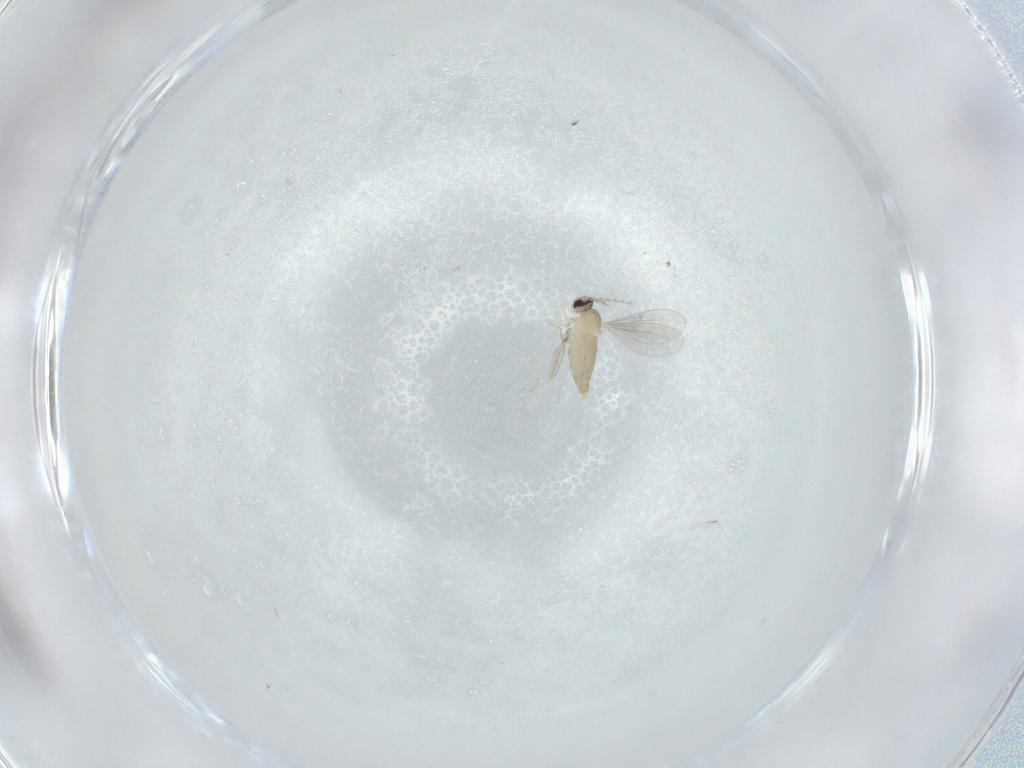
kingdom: Animalia
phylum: Arthropoda
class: Insecta
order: Diptera
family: Cecidomyiidae
